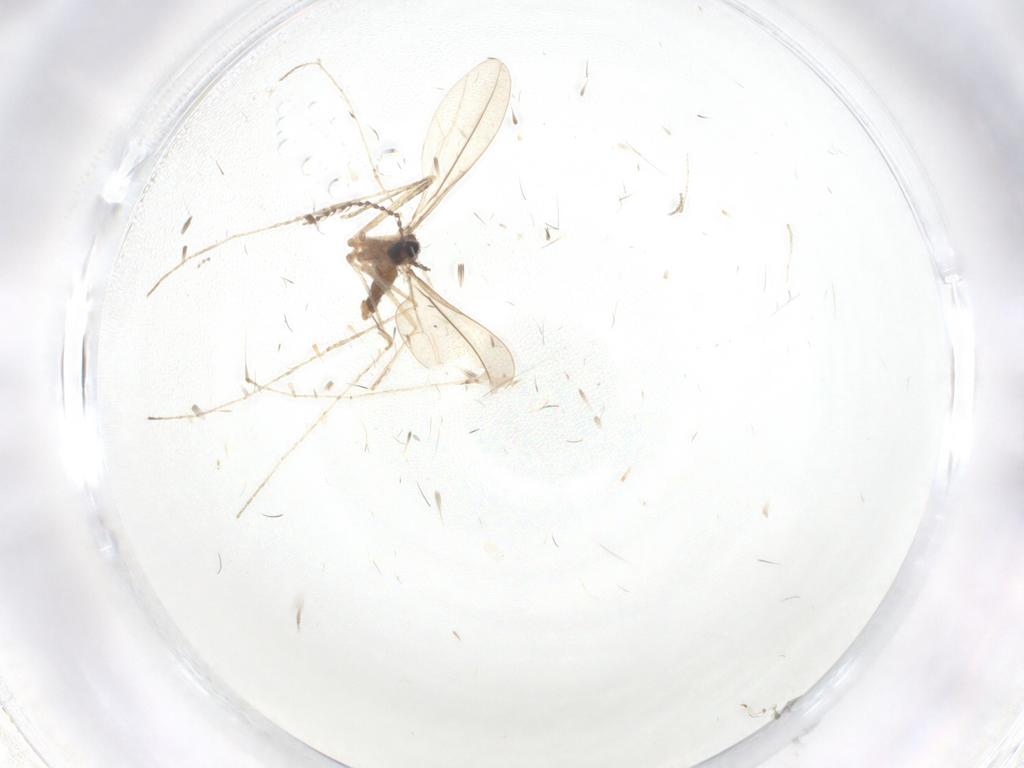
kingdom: Animalia
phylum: Arthropoda
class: Insecta
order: Diptera
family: Cecidomyiidae
